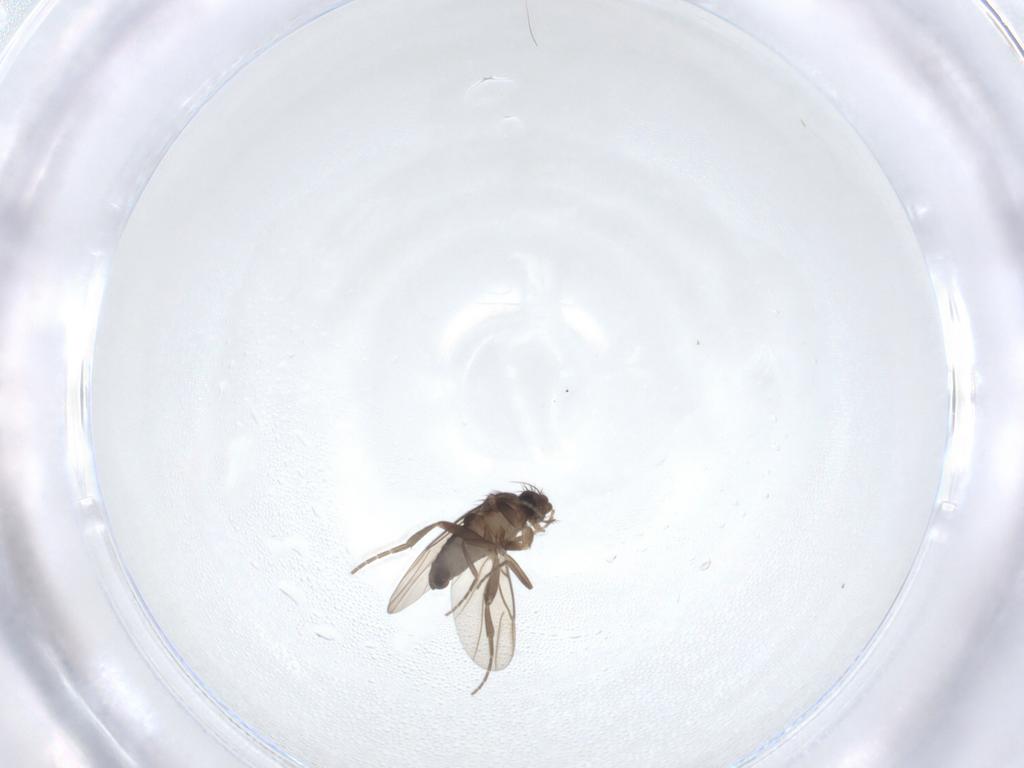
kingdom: Animalia
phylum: Arthropoda
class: Insecta
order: Diptera
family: Phoridae
